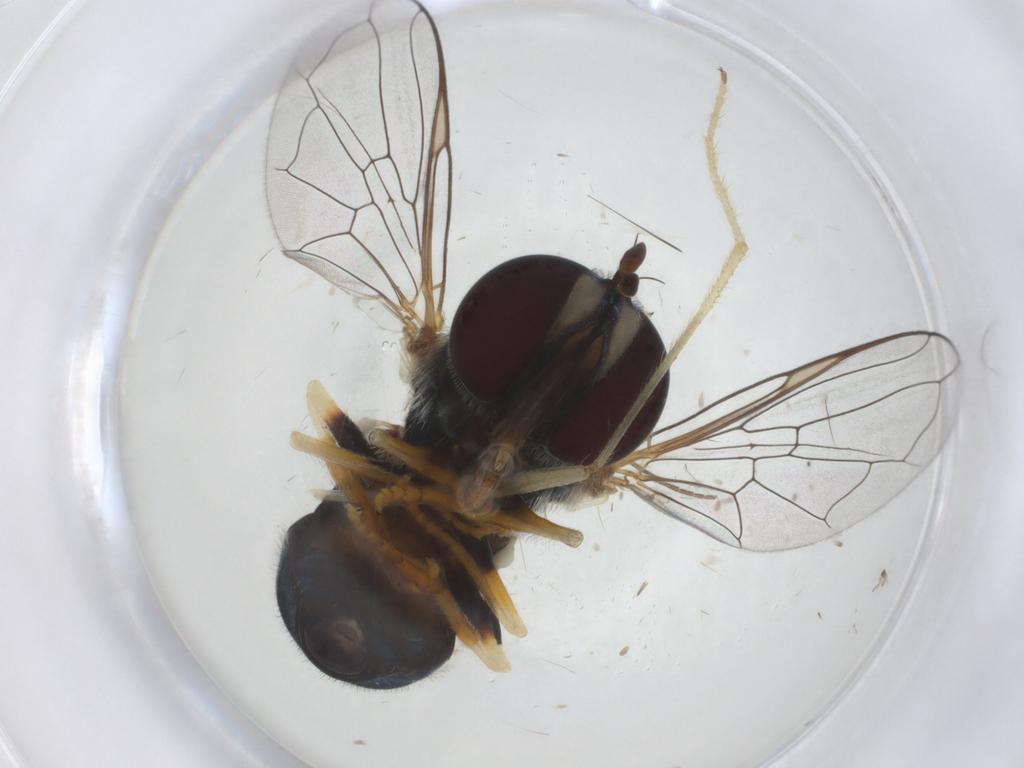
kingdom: Animalia
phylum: Arthropoda
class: Insecta
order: Diptera
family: Syrphidae
